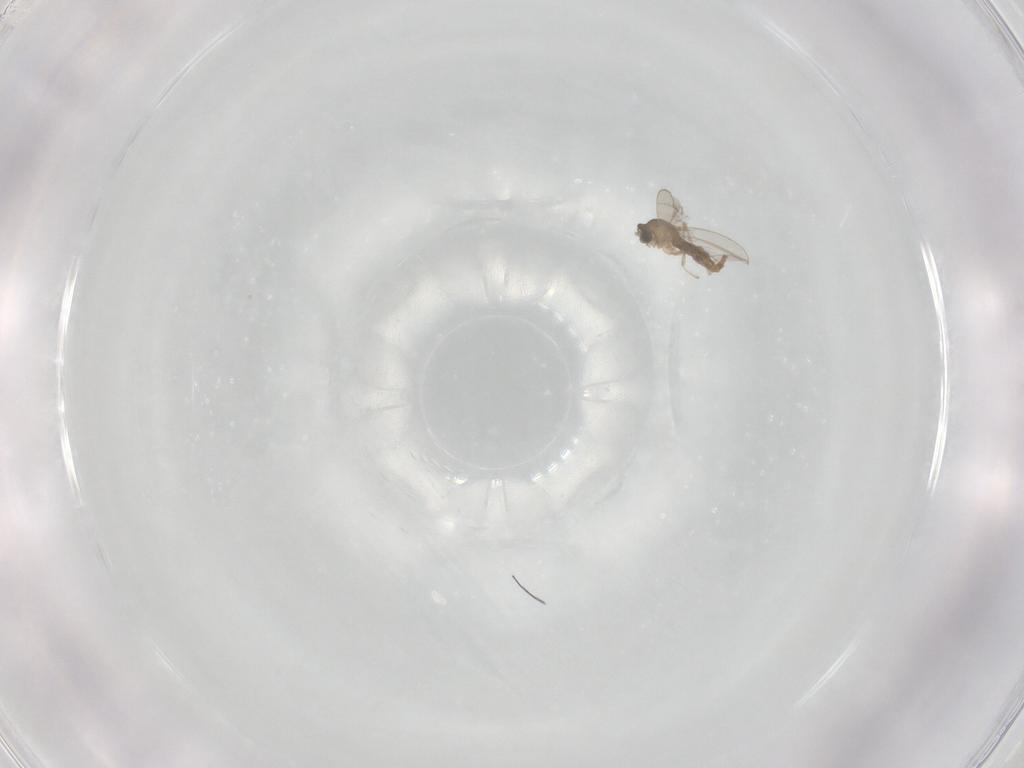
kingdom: Animalia
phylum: Arthropoda
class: Insecta
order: Diptera
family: Cecidomyiidae
